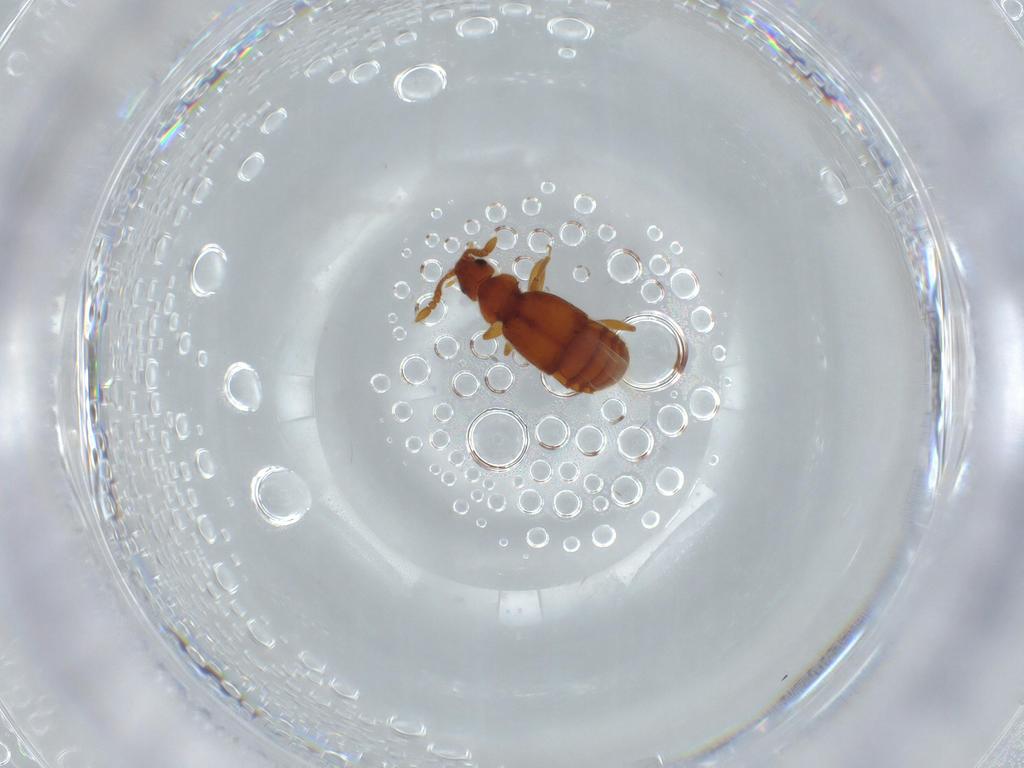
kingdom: Animalia
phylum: Arthropoda
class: Insecta
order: Coleoptera
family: Staphylinidae
